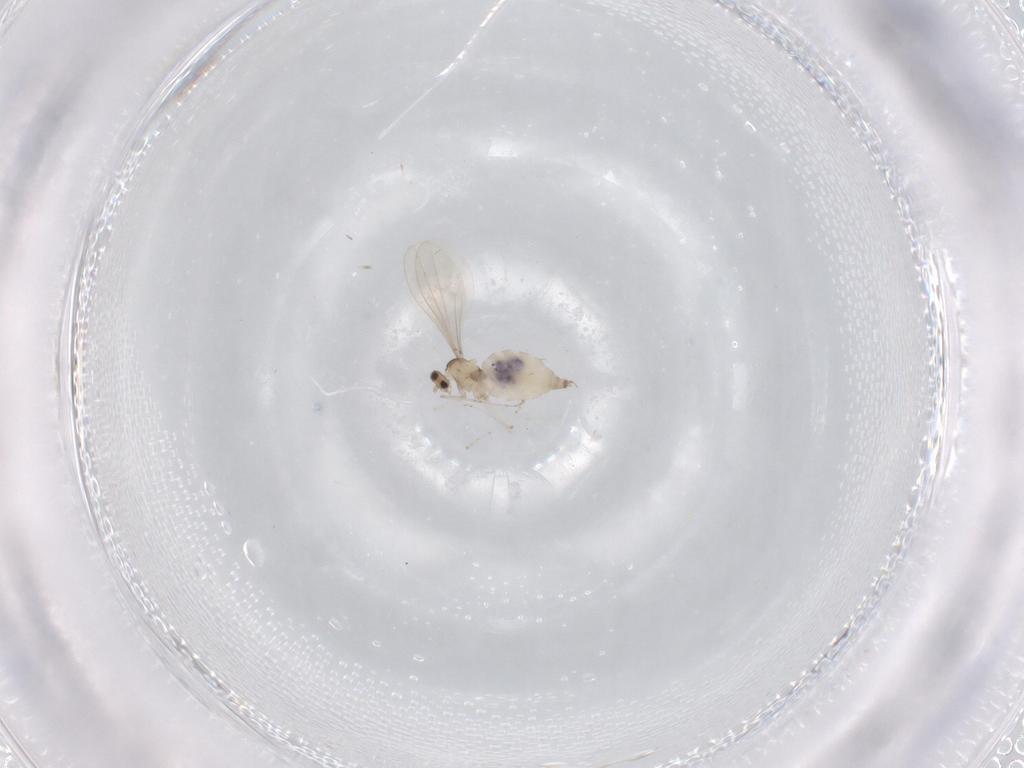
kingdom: Animalia
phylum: Arthropoda
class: Insecta
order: Diptera
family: Cecidomyiidae
